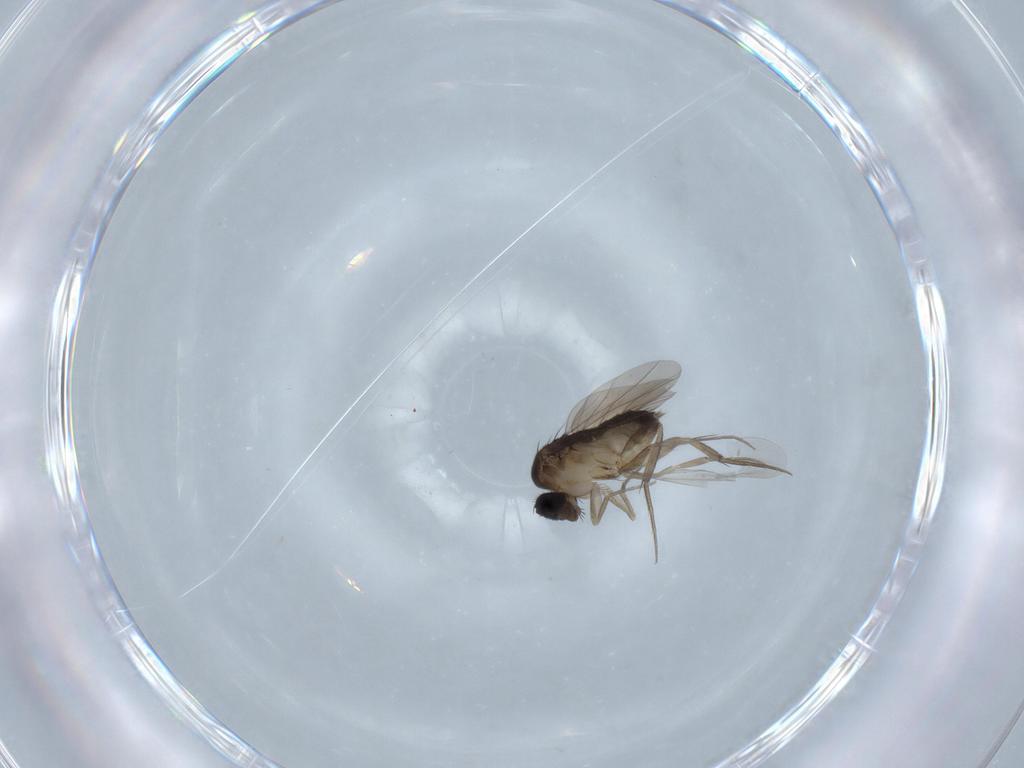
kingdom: Animalia
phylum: Arthropoda
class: Insecta
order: Diptera
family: Phoridae
